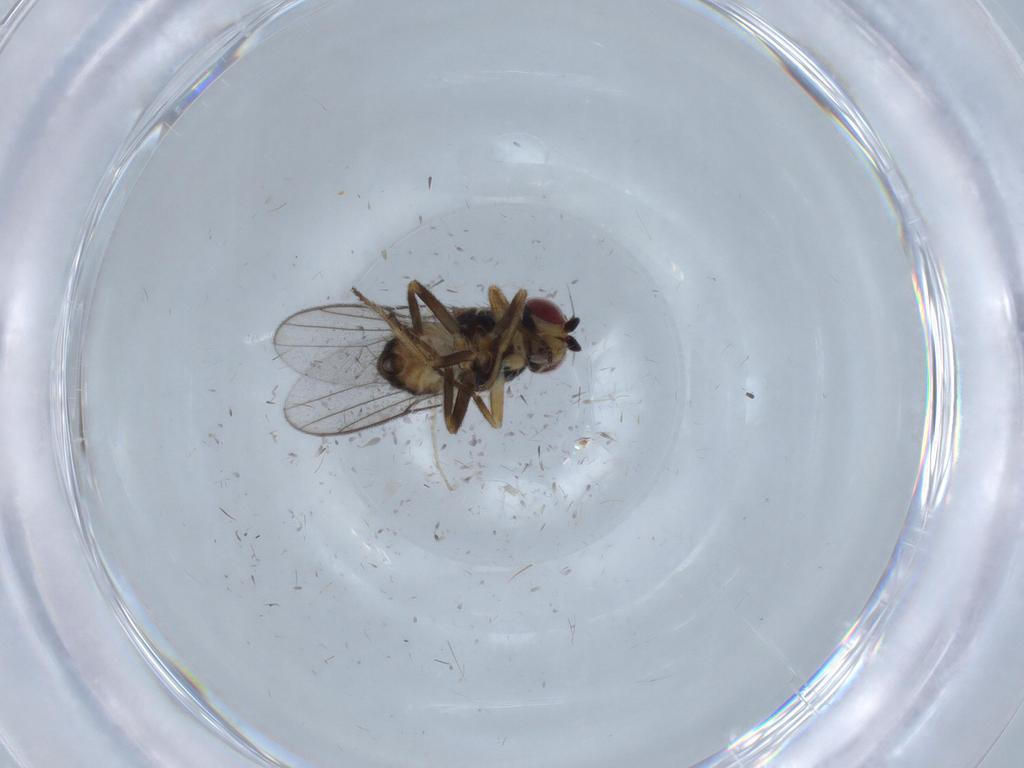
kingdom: Animalia
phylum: Arthropoda
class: Insecta
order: Diptera
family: Chloropidae
